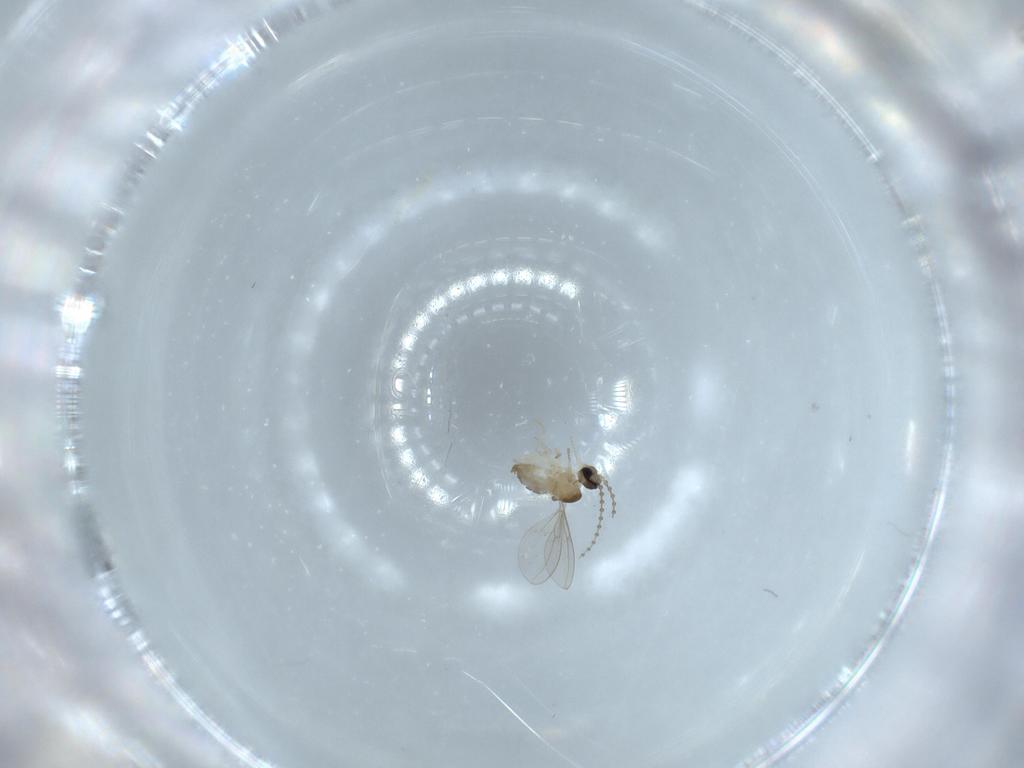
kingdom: Animalia
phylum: Arthropoda
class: Insecta
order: Diptera
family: Cecidomyiidae
